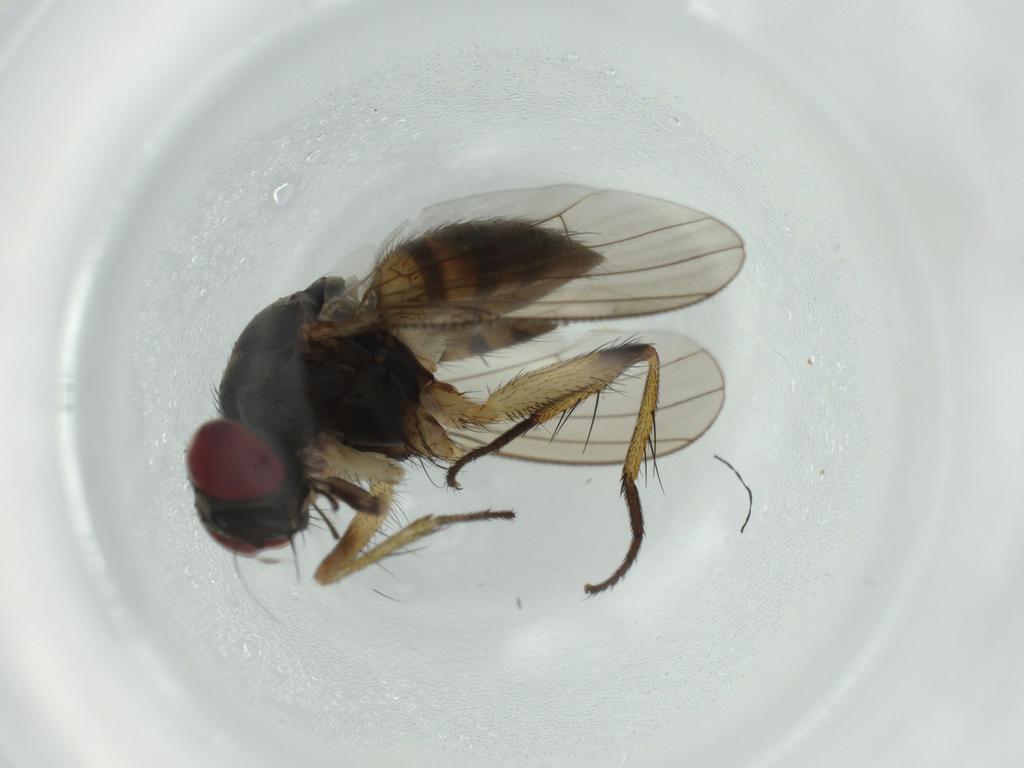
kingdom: Animalia
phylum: Arthropoda
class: Insecta
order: Diptera
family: Muscidae
